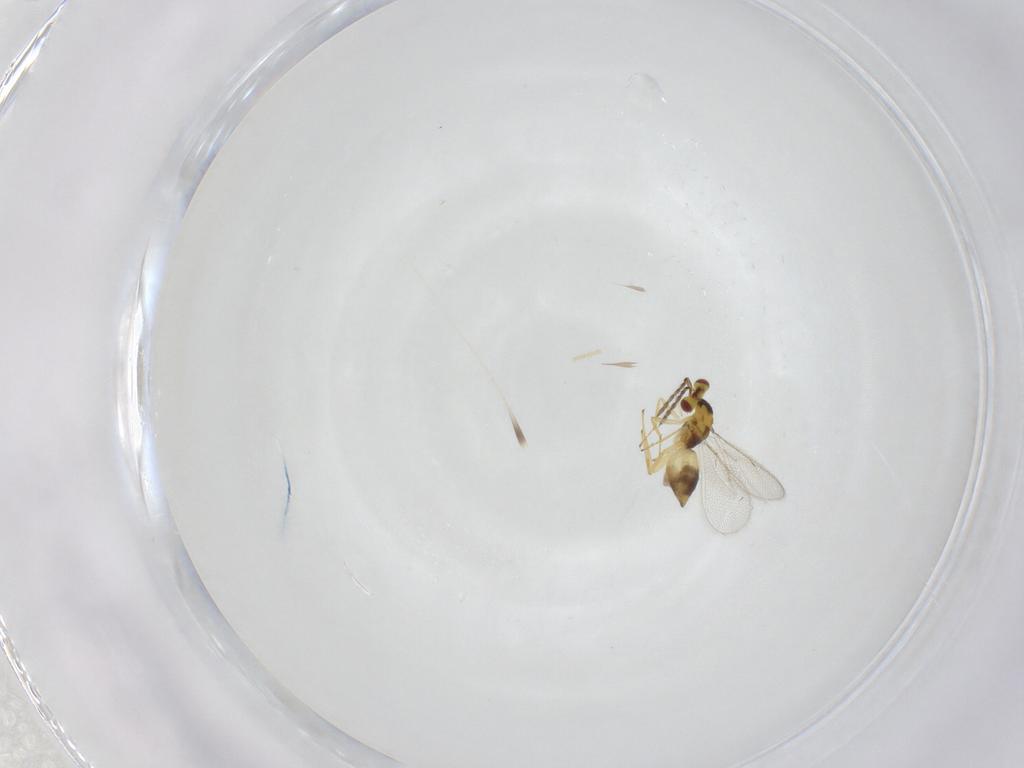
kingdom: Animalia
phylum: Arthropoda
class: Insecta
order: Hymenoptera
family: Eulophidae
